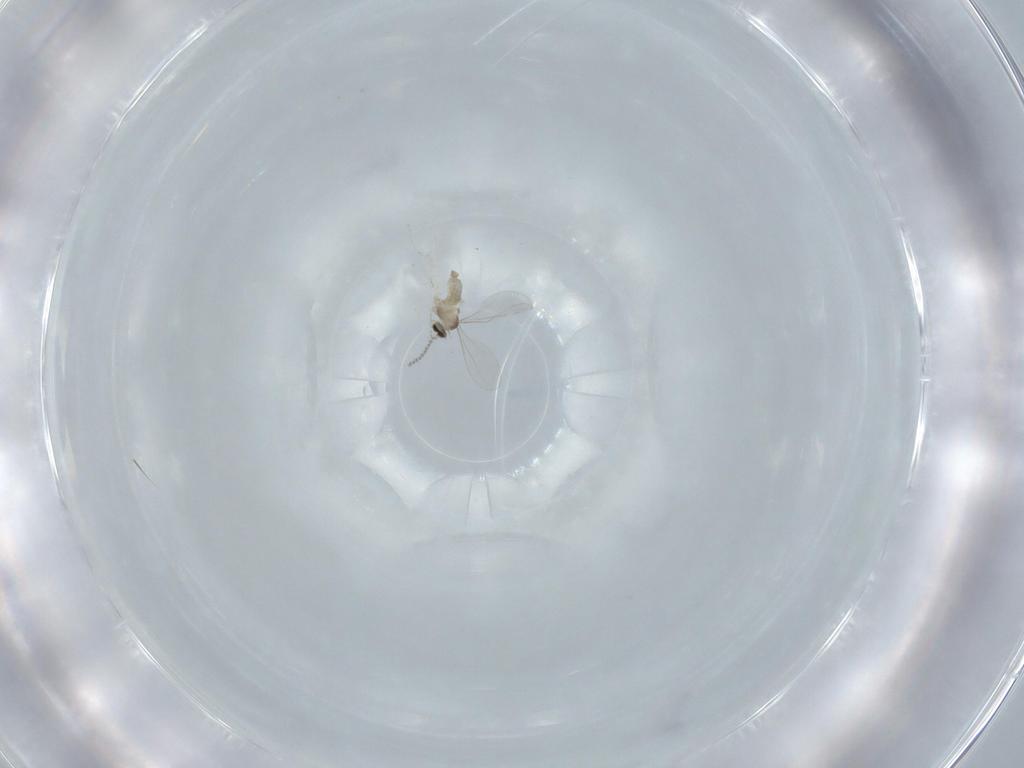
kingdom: Animalia
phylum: Arthropoda
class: Insecta
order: Diptera
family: Cecidomyiidae
